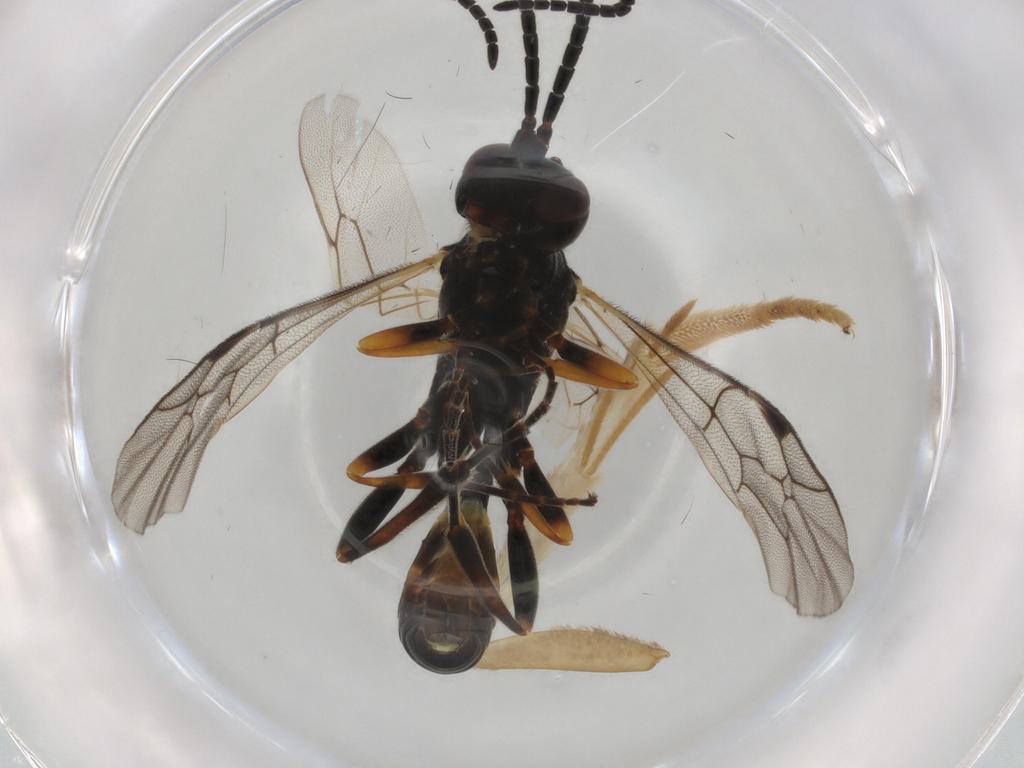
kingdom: Animalia
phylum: Arthropoda
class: Insecta
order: Hymenoptera
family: Ichneumonidae
